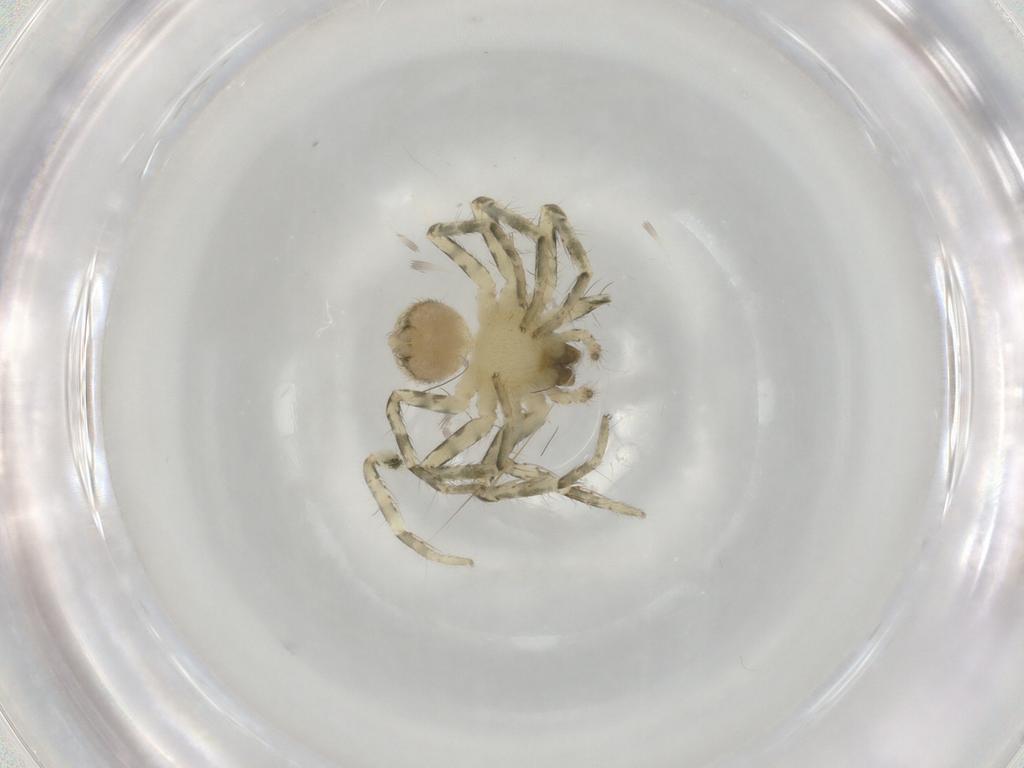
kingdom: Animalia
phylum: Arthropoda
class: Arachnida
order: Araneae
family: Selenopidae
